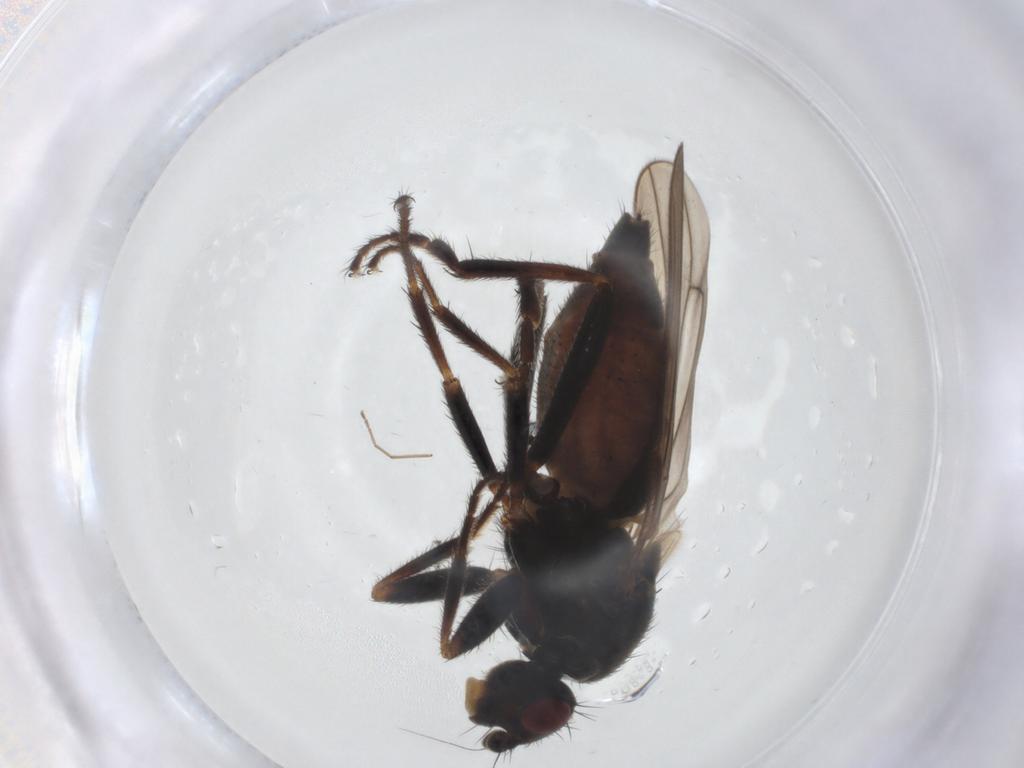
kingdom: Animalia
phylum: Arthropoda
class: Insecta
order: Diptera
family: Sphaeroceridae
